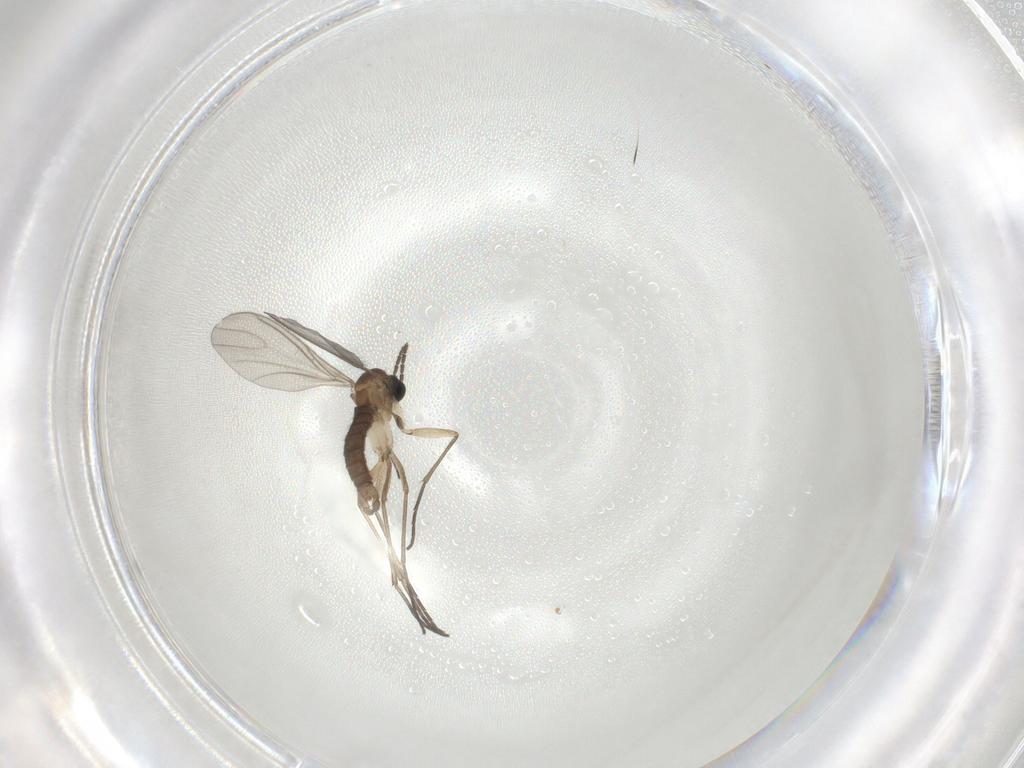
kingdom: Animalia
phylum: Arthropoda
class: Insecta
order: Diptera
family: Sciaridae
